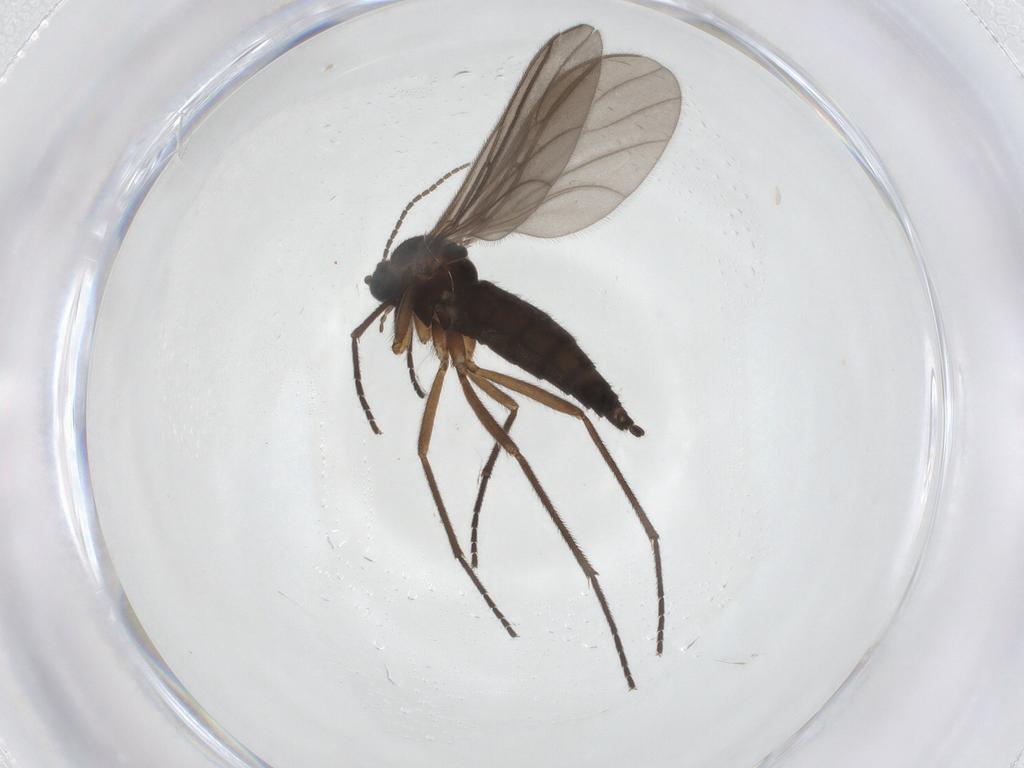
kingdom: Animalia
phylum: Arthropoda
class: Insecta
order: Diptera
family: Sciaridae
